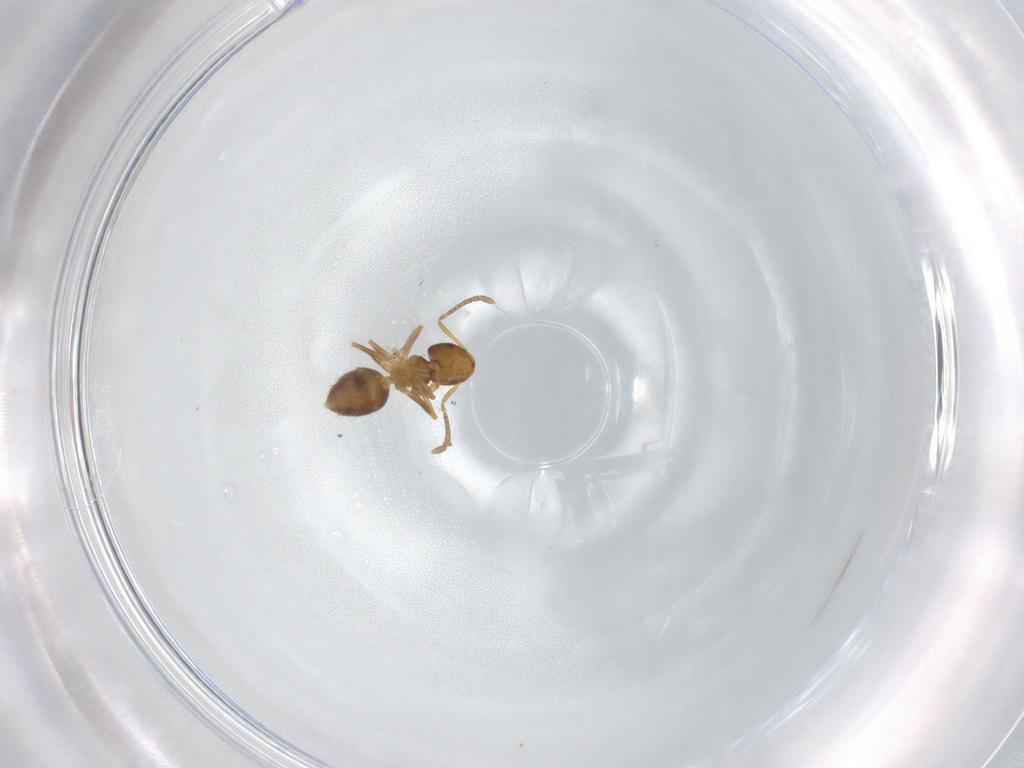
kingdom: Animalia
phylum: Arthropoda
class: Insecta
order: Hymenoptera
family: Formicidae
